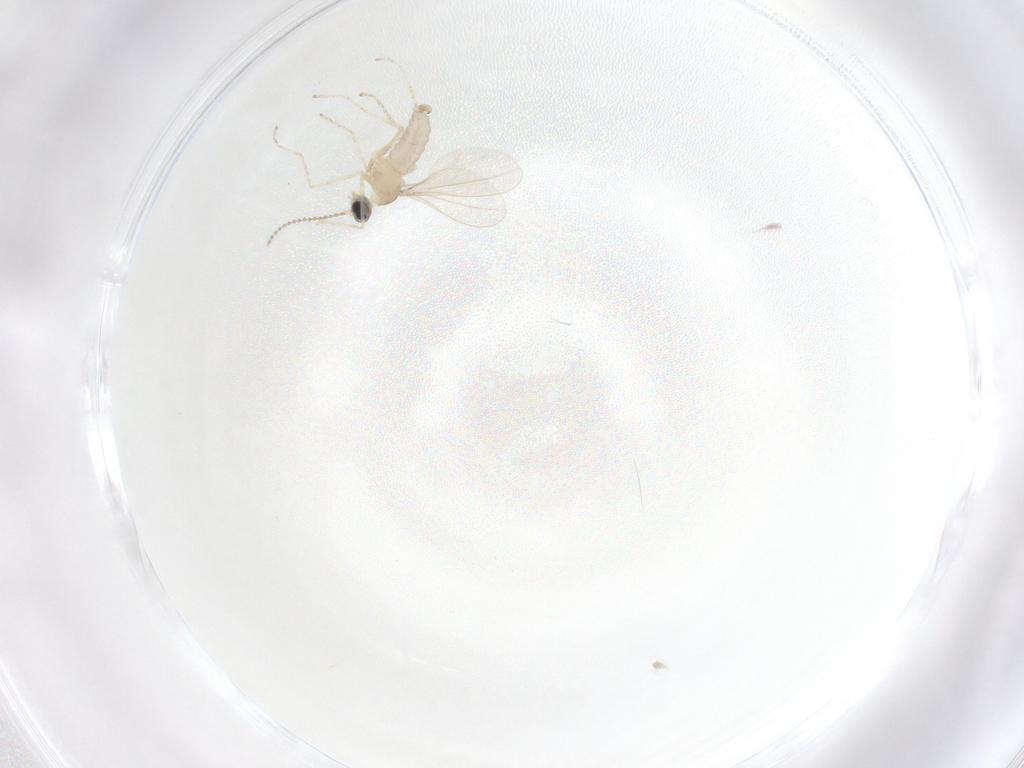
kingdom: Animalia
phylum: Arthropoda
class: Insecta
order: Diptera
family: Cecidomyiidae
